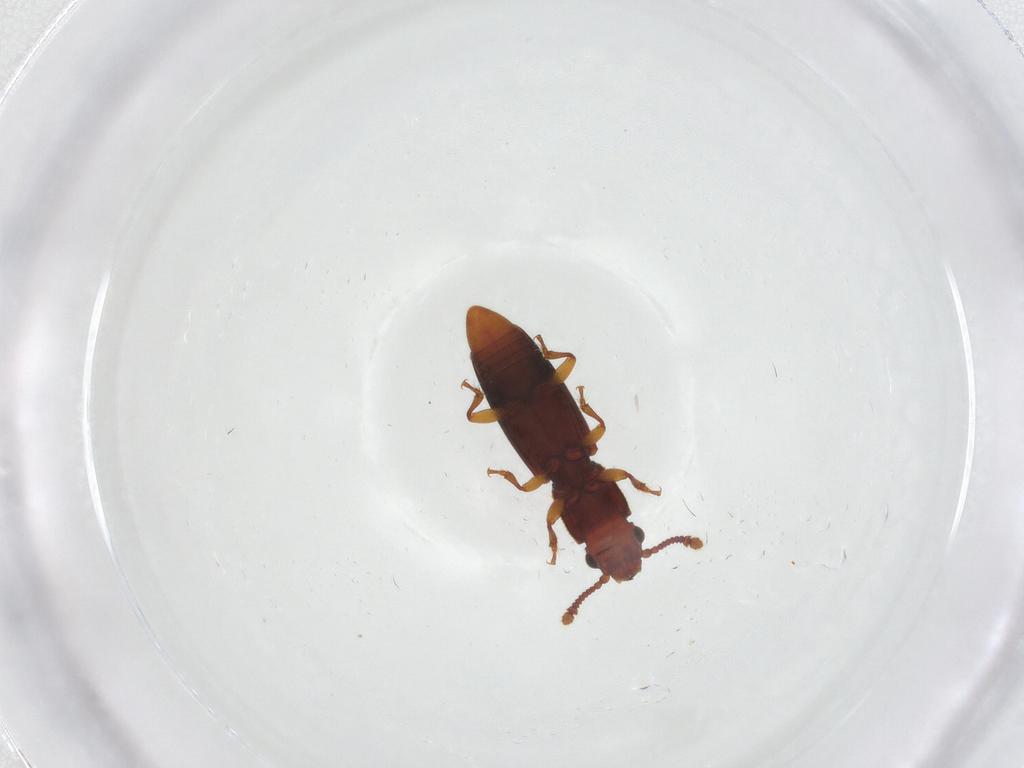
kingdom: Animalia
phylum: Arthropoda
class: Insecta
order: Coleoptera
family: Monotomidae
